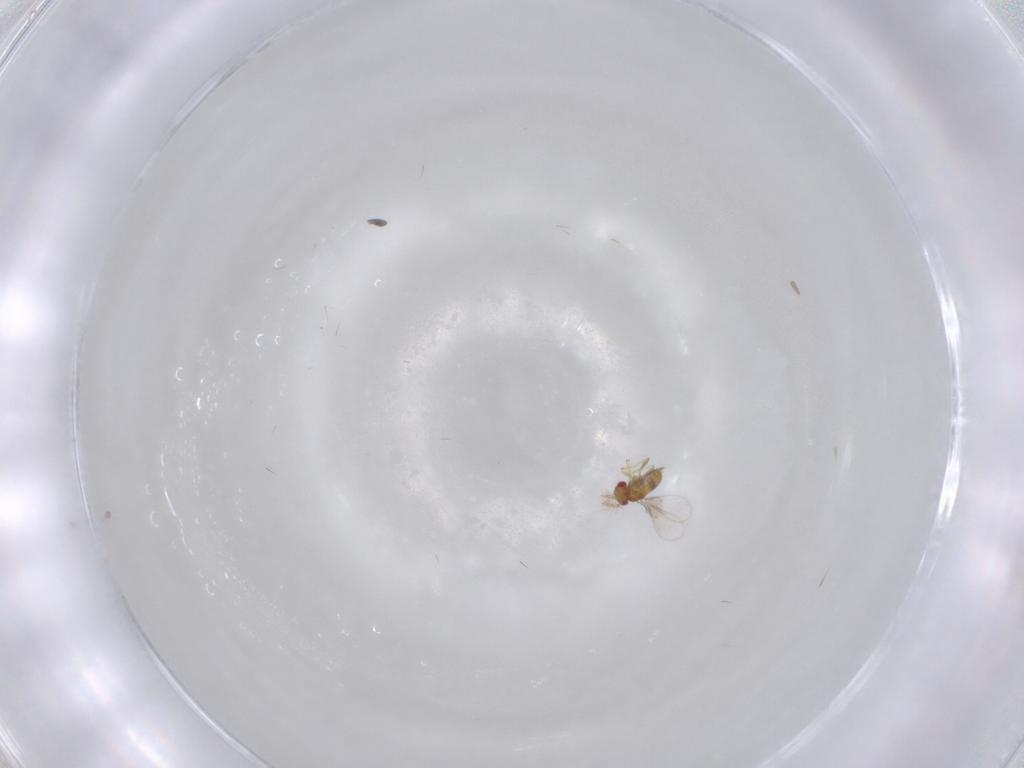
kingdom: Animalia
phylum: Arthropoda
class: Insecta
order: Hymenoptera
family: Trichogrammatidae
